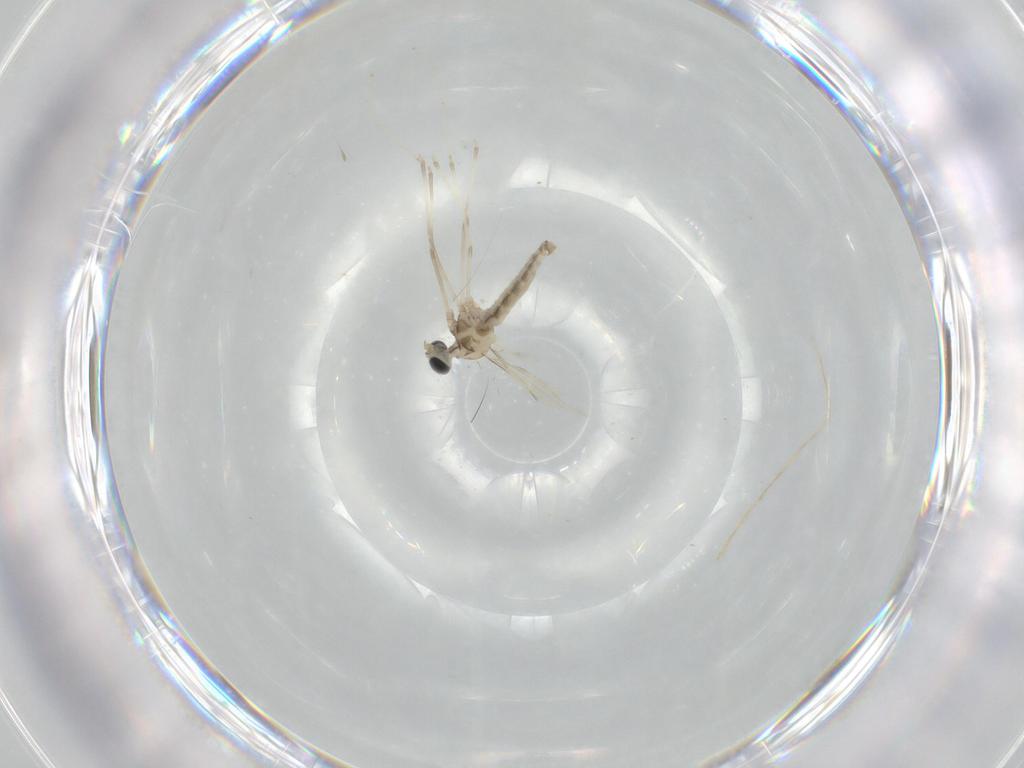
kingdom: Animalia
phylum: Arthropoda
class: Insecta
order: Diptera
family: Cecidomyiidae
